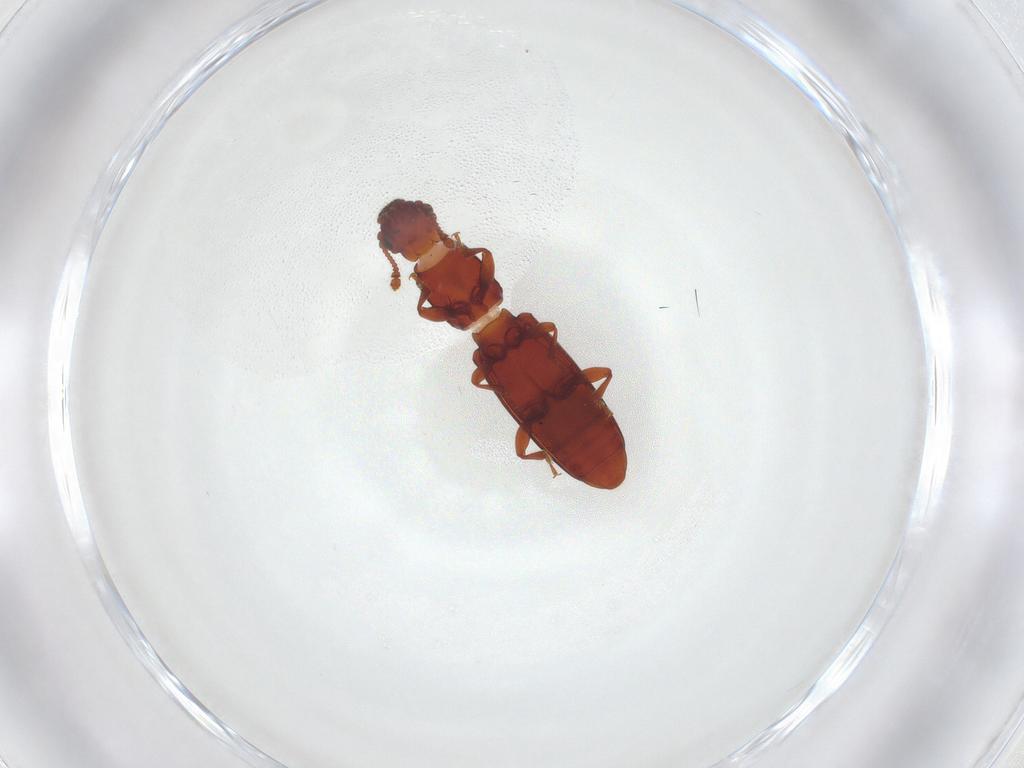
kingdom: Animalia
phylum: Arthropoda
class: Insecta
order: Coleoptera
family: Monotomidae
